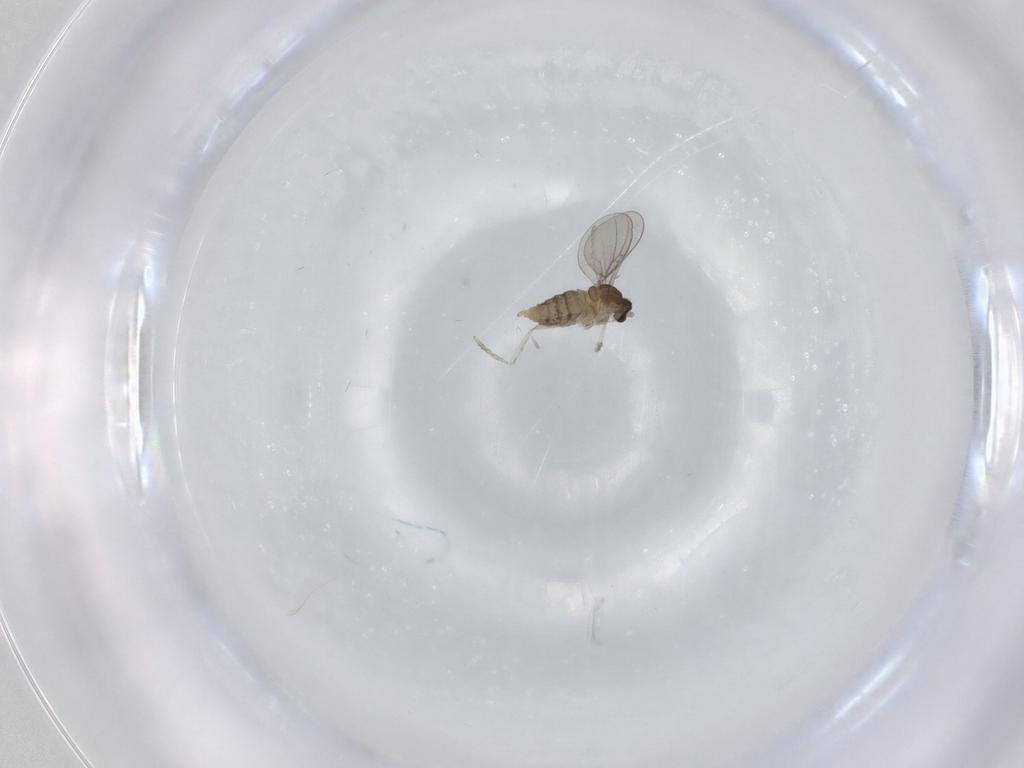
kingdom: Animalia
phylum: Arthropoda
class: Insecta
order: Diptera
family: Cecidomyiidae
